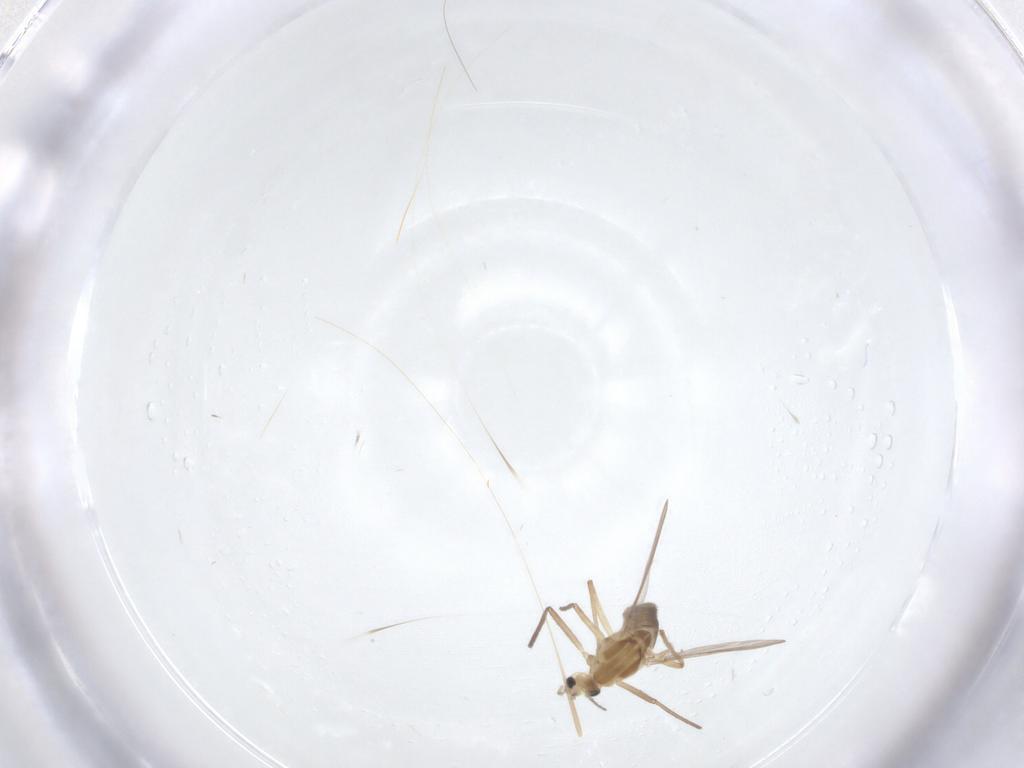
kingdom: Animalia
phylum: Arthropoda
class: Insecta
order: Diptera
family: Chironomidae
